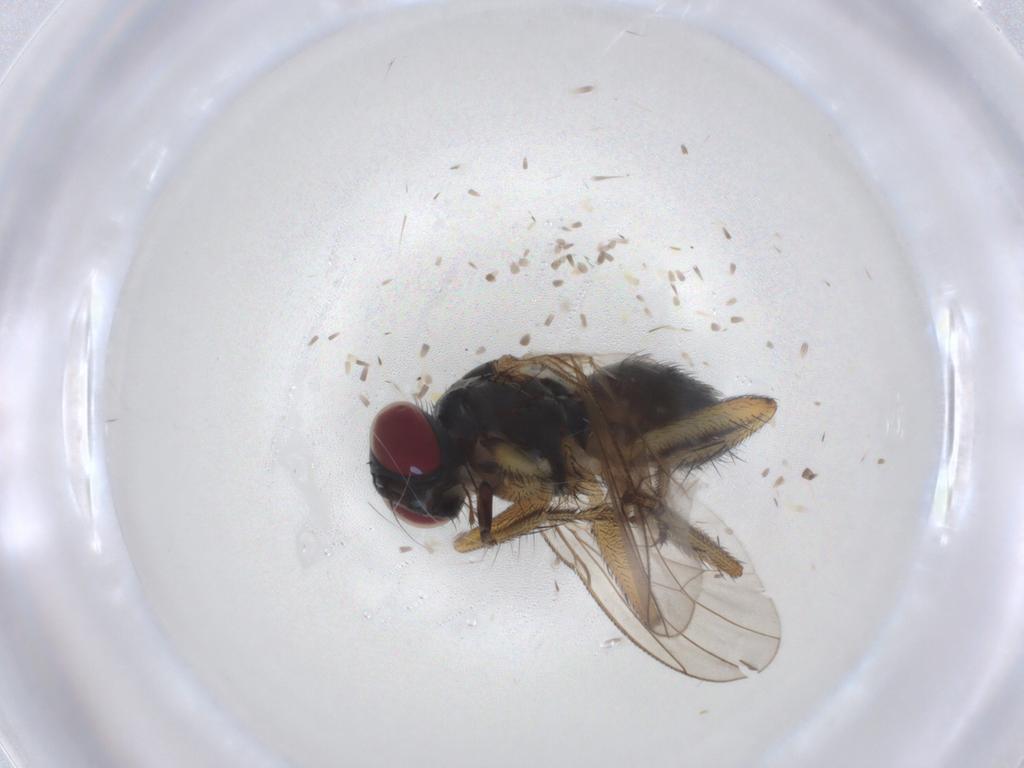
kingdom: Animalia
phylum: Arthropoda
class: Insecta
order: Diptera
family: Muscidae
